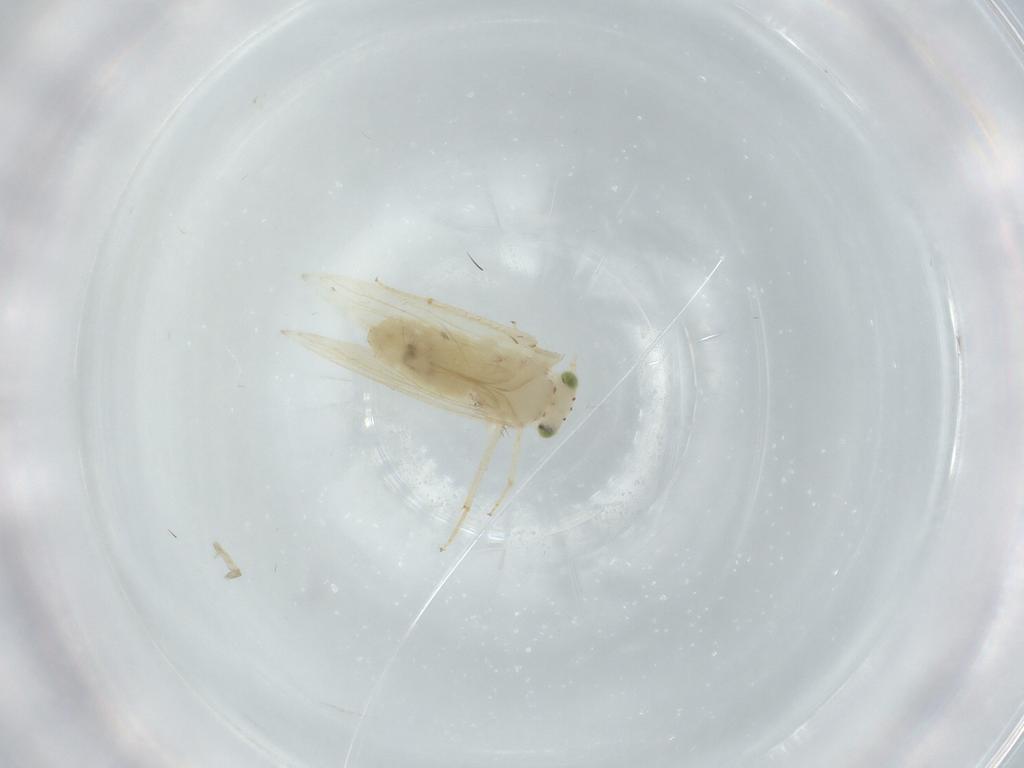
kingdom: Animalia
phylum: Arthropoda
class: Insecta
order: Psocodea
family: Lepidopsocidae
